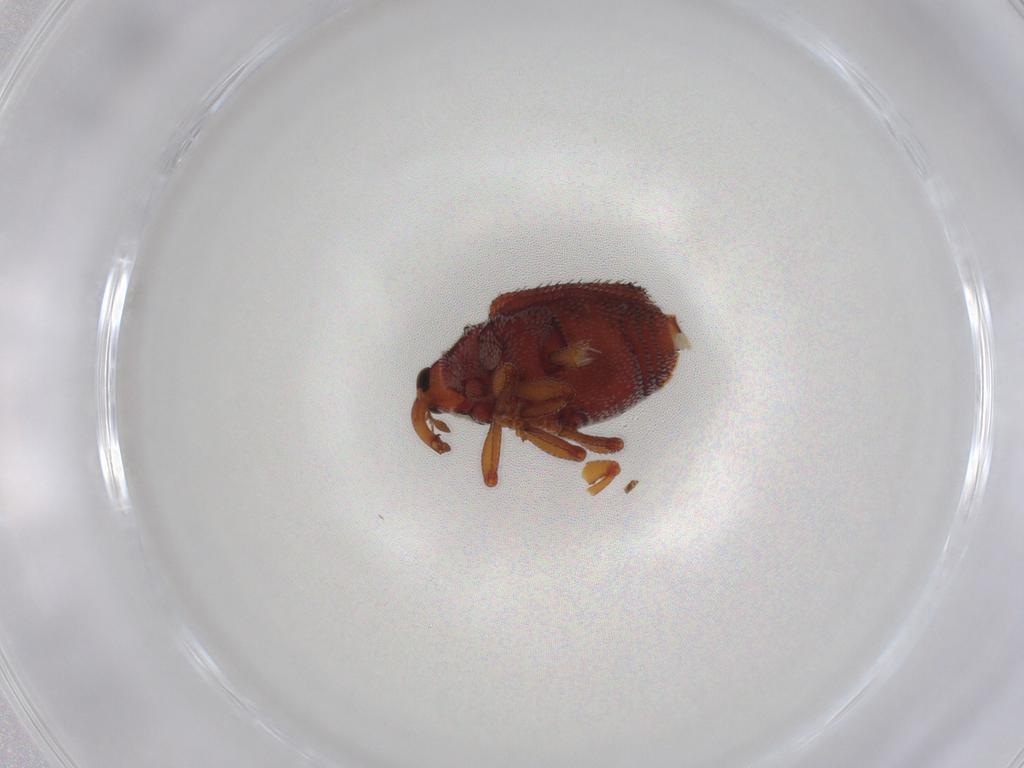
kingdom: Animalia
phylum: Arthropoda
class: Insecta
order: Coleoptera
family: Curculionidae
